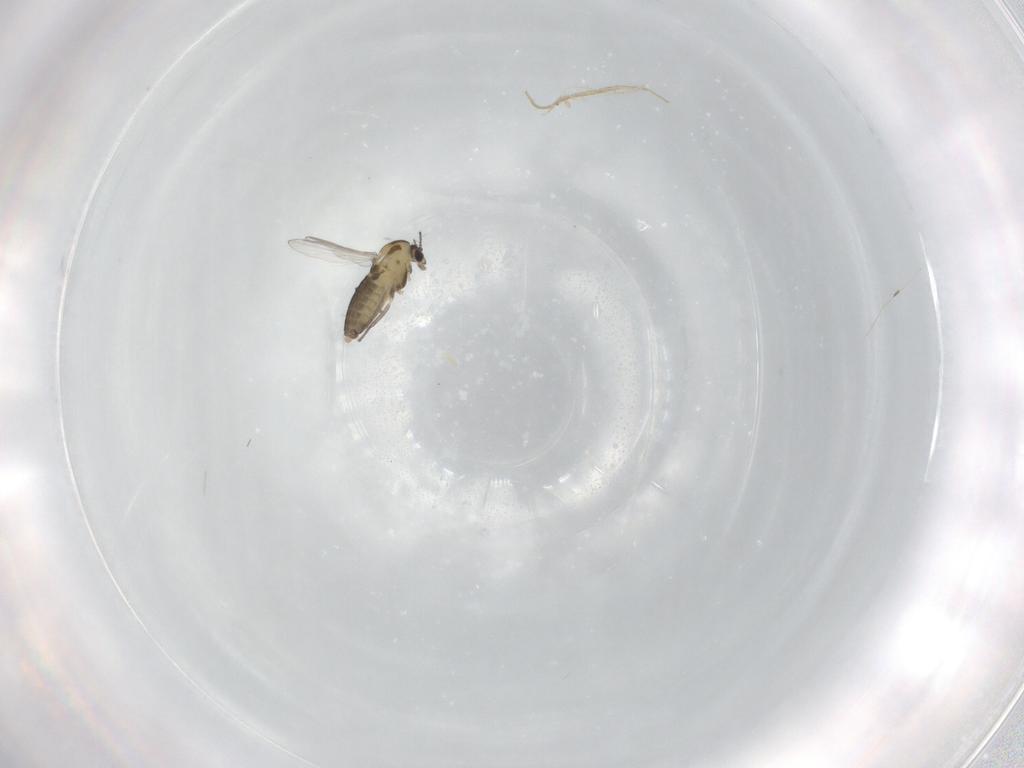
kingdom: Animalia
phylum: Arthropoda
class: Insecta
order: Diptera
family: Chironomidae
